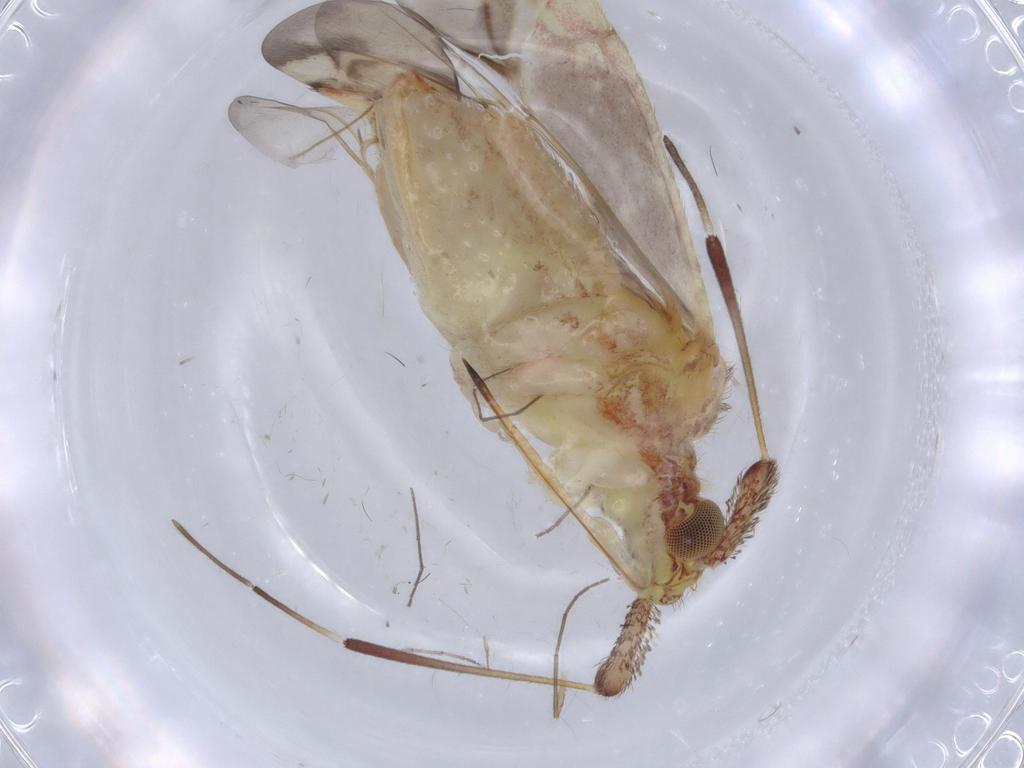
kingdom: Animalia
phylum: Arthropoda
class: Insecta
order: Hemiptera
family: Miridae
